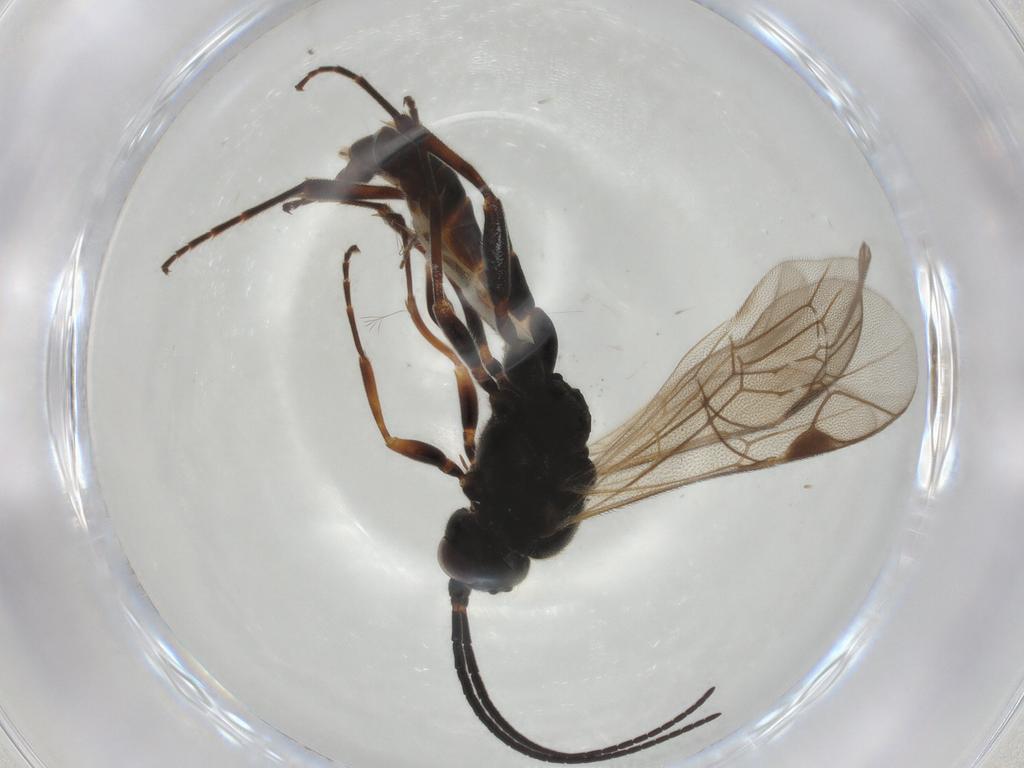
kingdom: Animalia
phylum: Arthropoda
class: Insecta
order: Hymenoptera
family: Ichneumonidae
